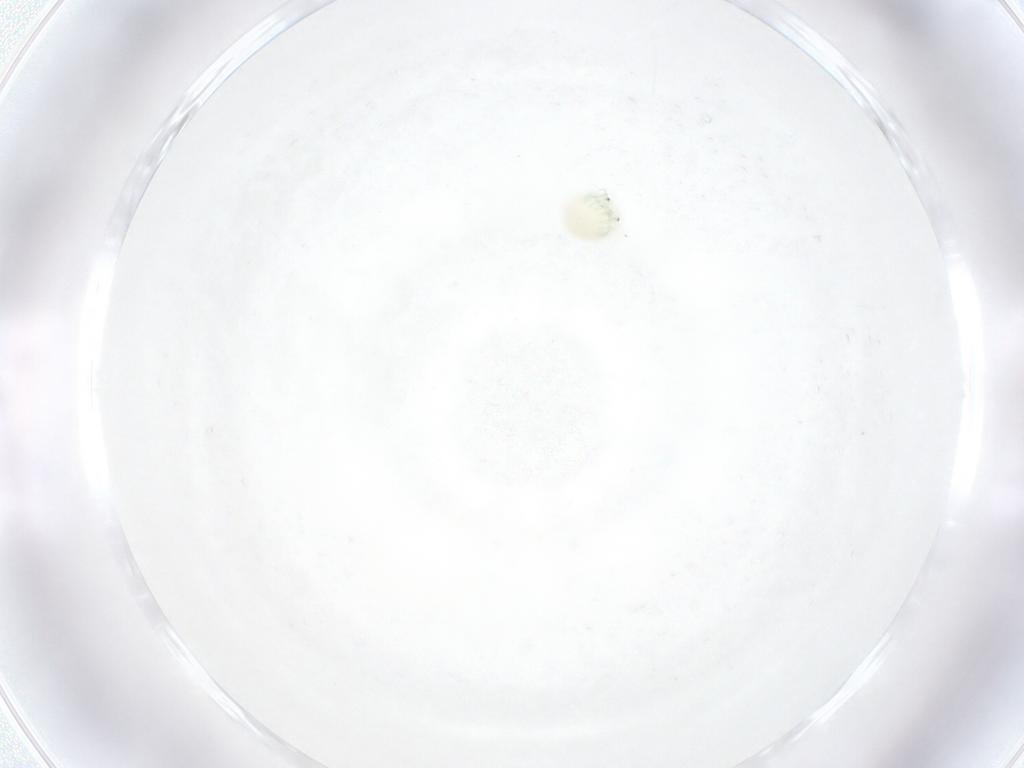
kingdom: Animalia
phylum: Arthropoda
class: Arachnida
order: Trombidiformes
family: Arrenuridae
